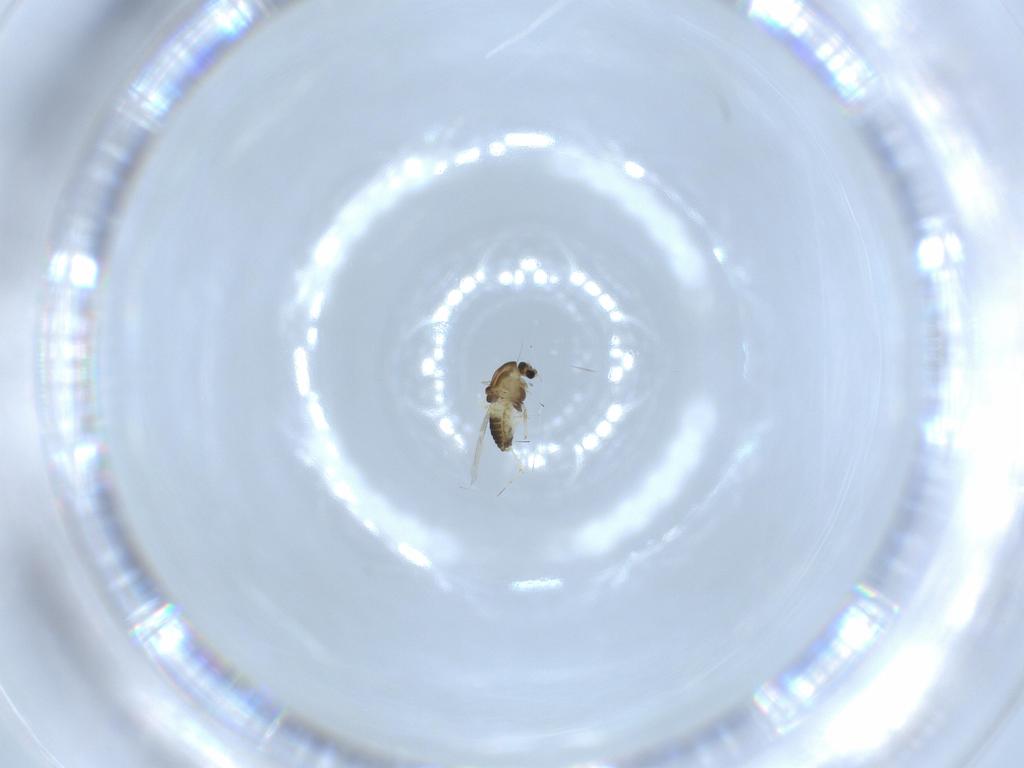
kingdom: Animalia
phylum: Arthropoda
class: Insecta
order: Diptera
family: Chironomidae
